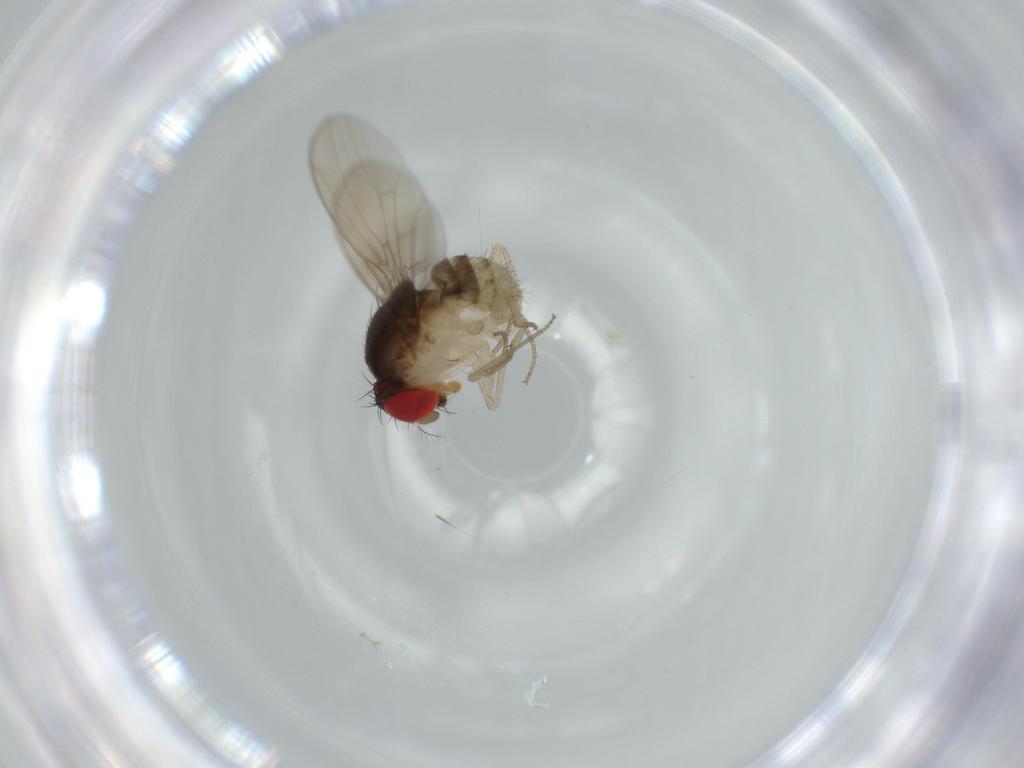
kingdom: Animalia
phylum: Arthropoda
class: Insecta
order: Diptera
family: Drosophilidae
